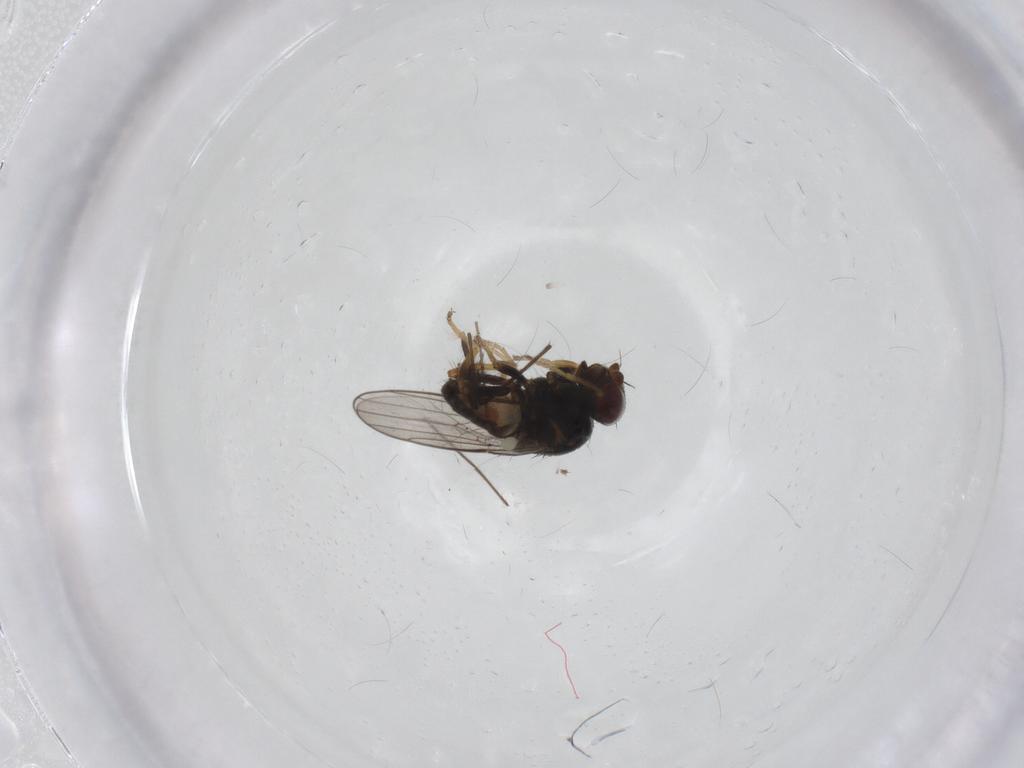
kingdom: Animalia
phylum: Arthropoda
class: Insecta
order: Diptera
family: Chloropidae
